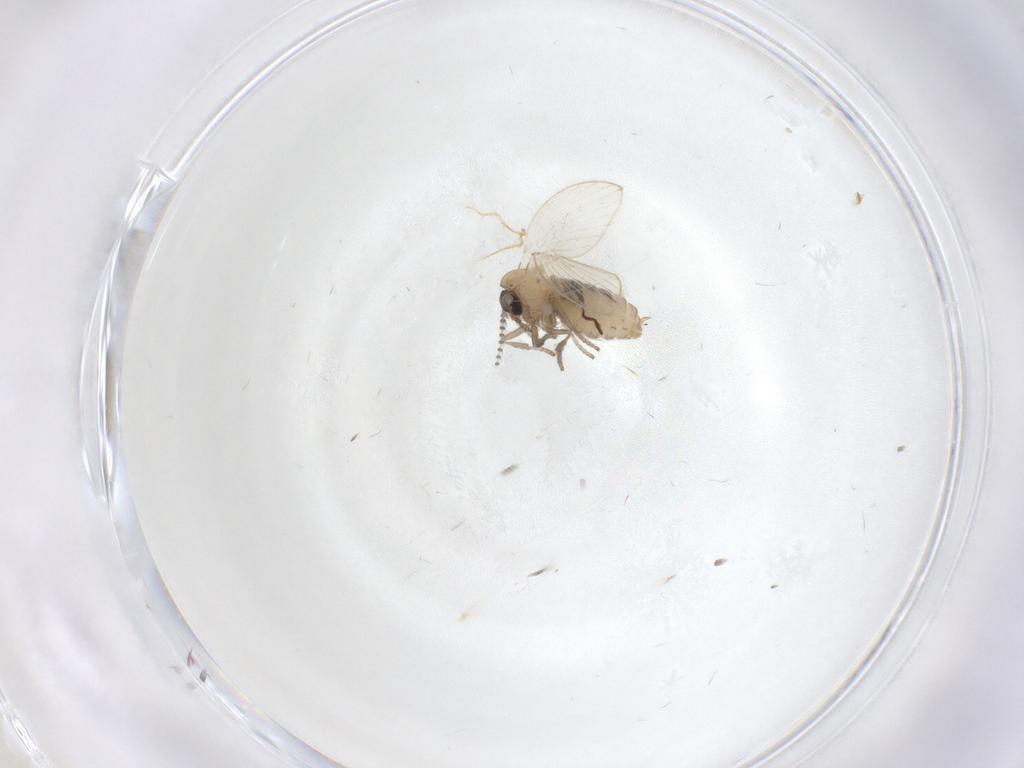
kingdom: Animalia
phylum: Arthropoda
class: Insecta
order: Diptera
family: Psychodidae
